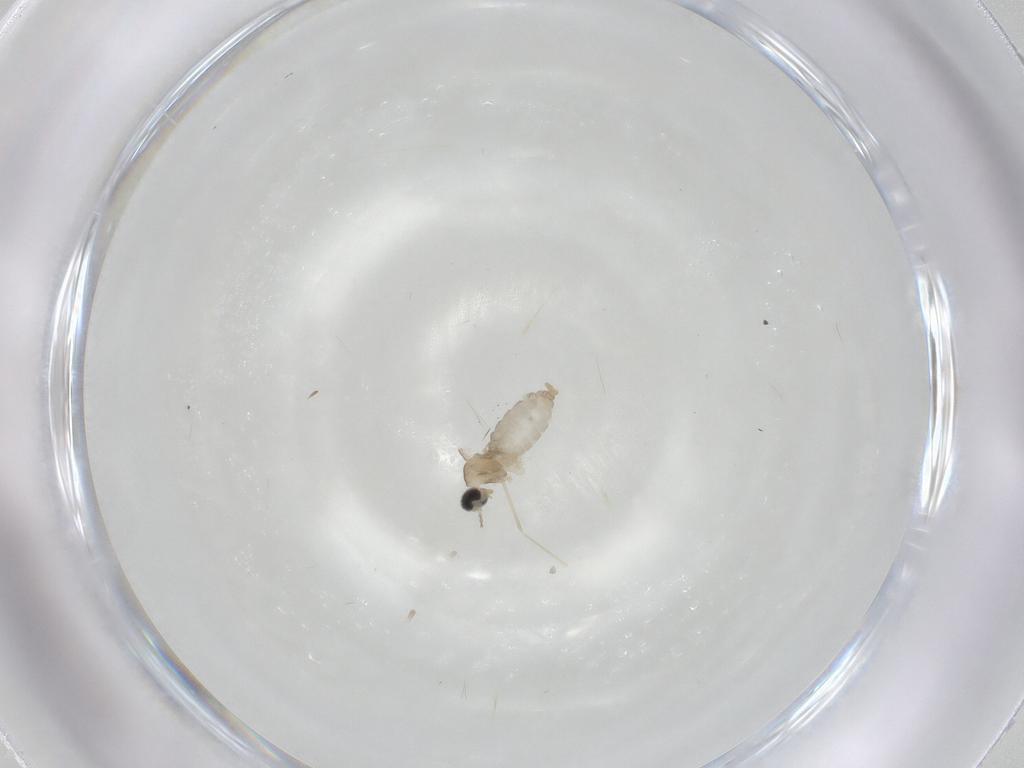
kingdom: Animalia
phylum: Arthropoda
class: Insecta
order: Diptera
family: Cecidomyiidae
